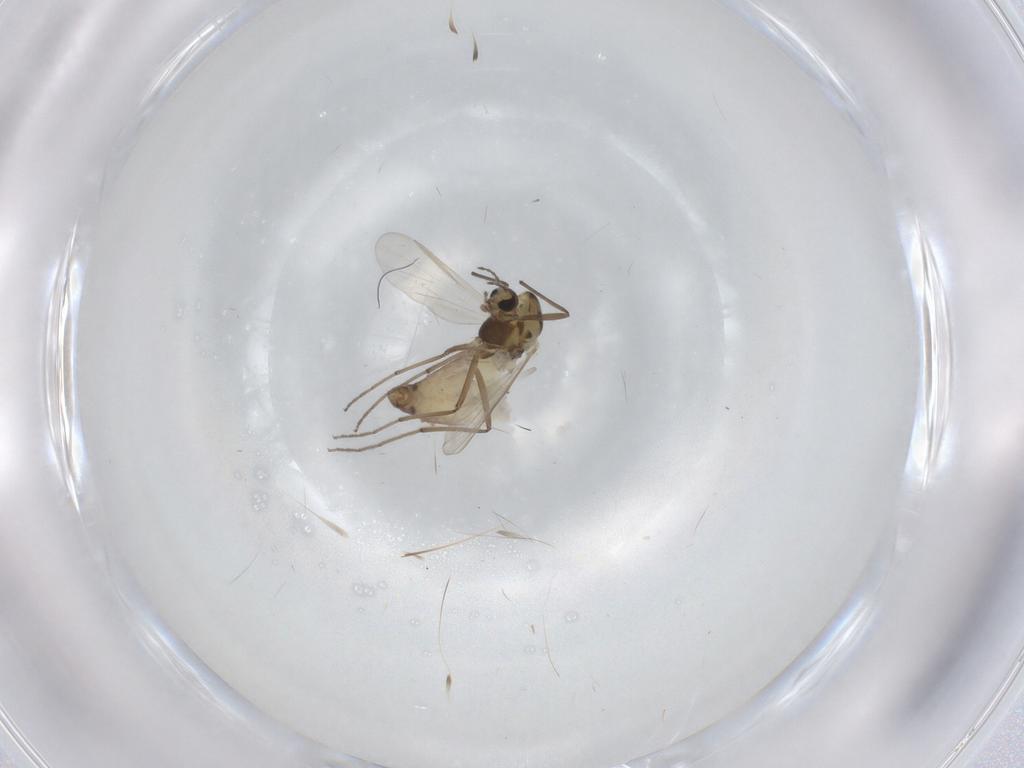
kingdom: Animalia
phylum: Arthropoda
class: Insecta
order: Diptera
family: Chironomidae
